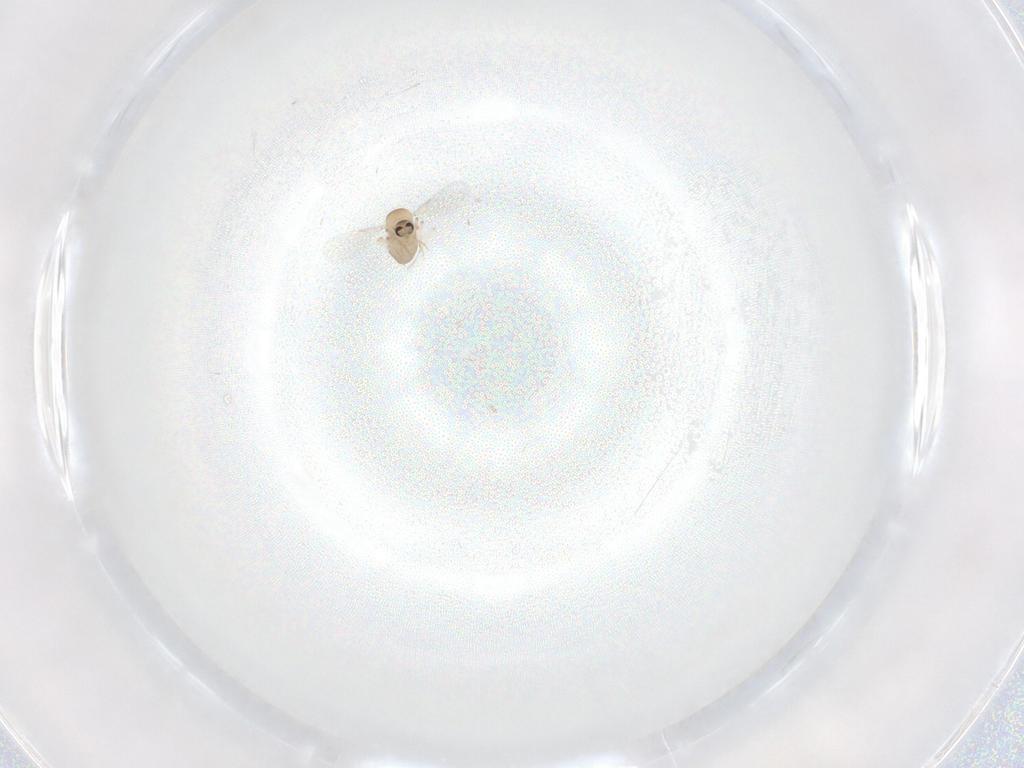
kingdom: Animalia
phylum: Arthropoda
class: Insecta
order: Diptera
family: Ceratopogonidae
